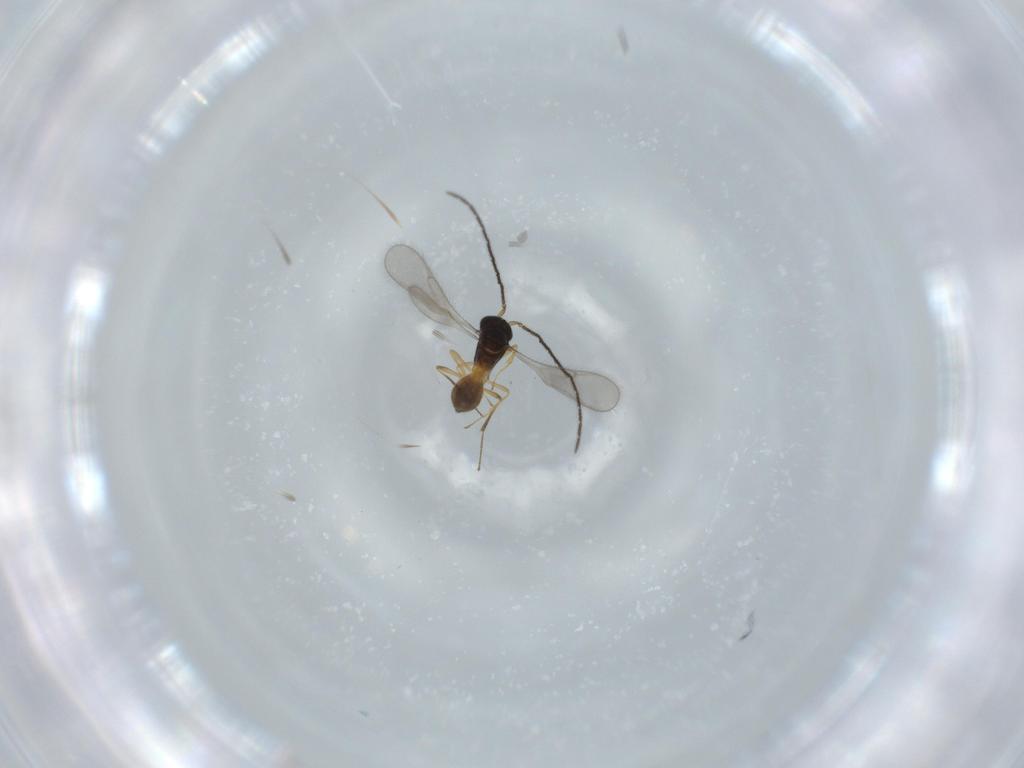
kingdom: Animalia
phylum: Arthropoda
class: Insecta
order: Hymenoptera
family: Scelionidae
